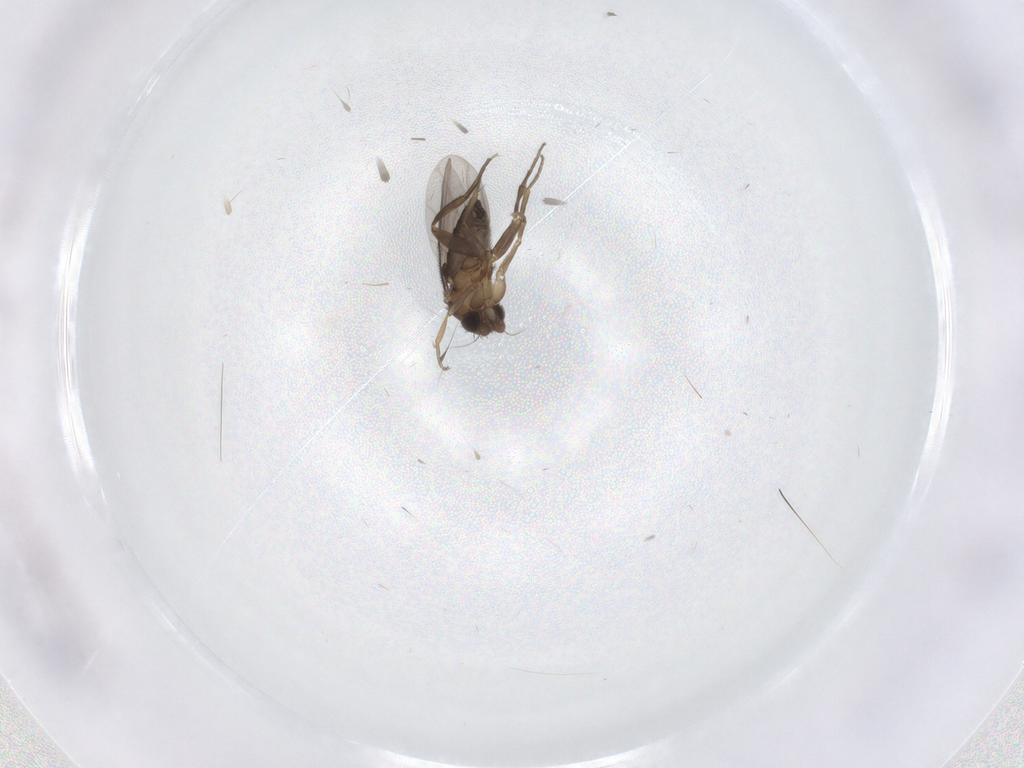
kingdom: Animalia
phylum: Arthropoda
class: Insecta
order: Diptera
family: Phoridae
